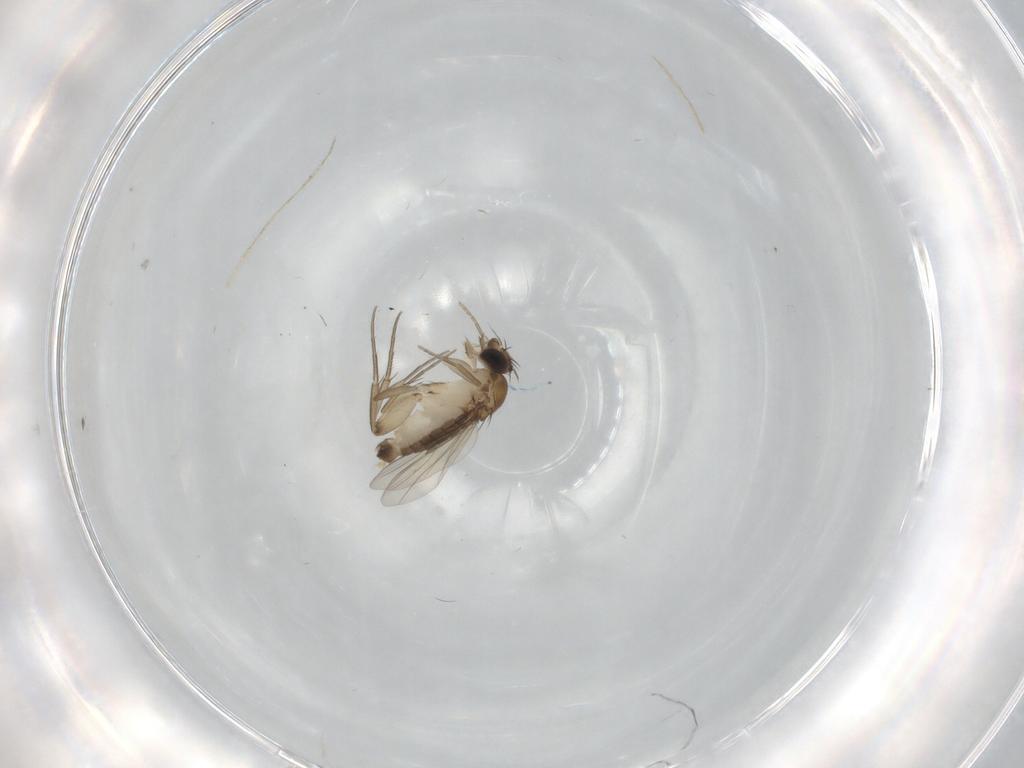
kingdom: Animalia
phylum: Arthropoda
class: Insecta
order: Diptera
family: Phoridae
